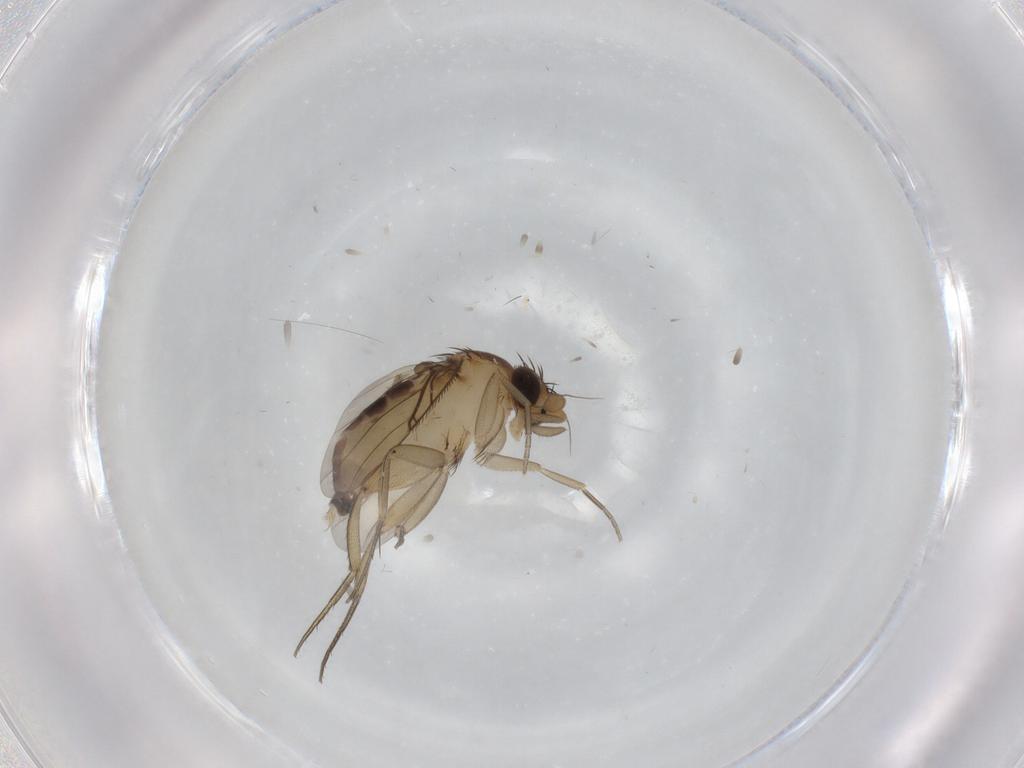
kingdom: Animalia
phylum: Arthropoda
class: Insecta
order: Diptera
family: Phoridae
